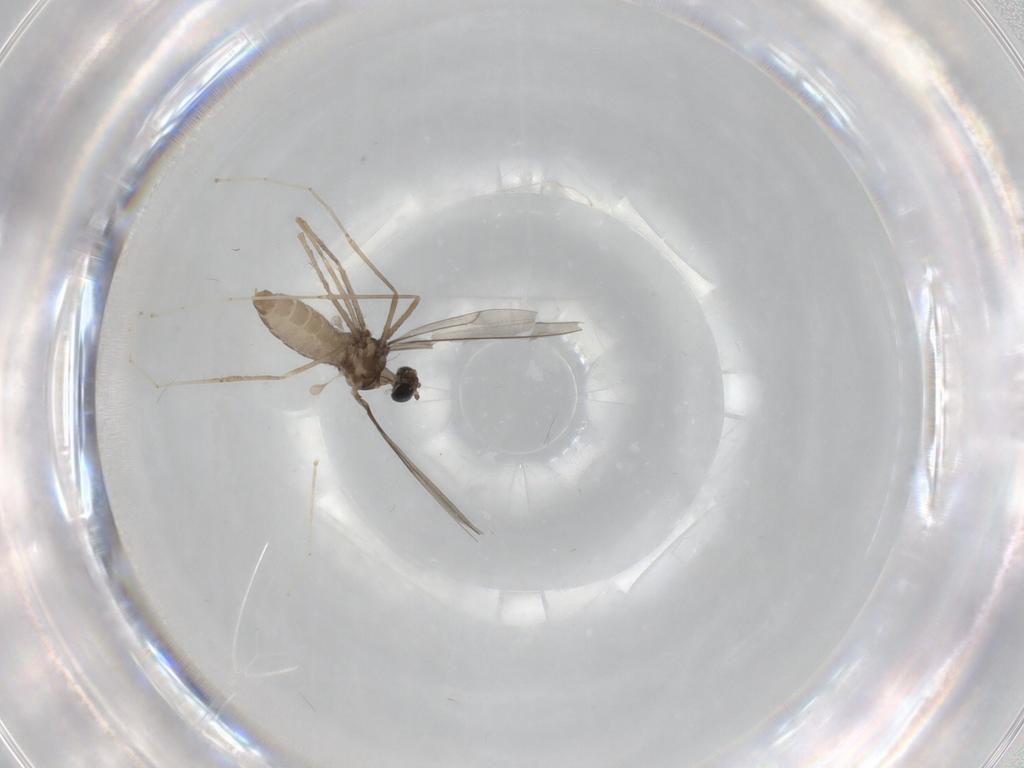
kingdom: Animalia
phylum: Arthropoda
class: Insecta
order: Diptera
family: Cecidomyiidae
